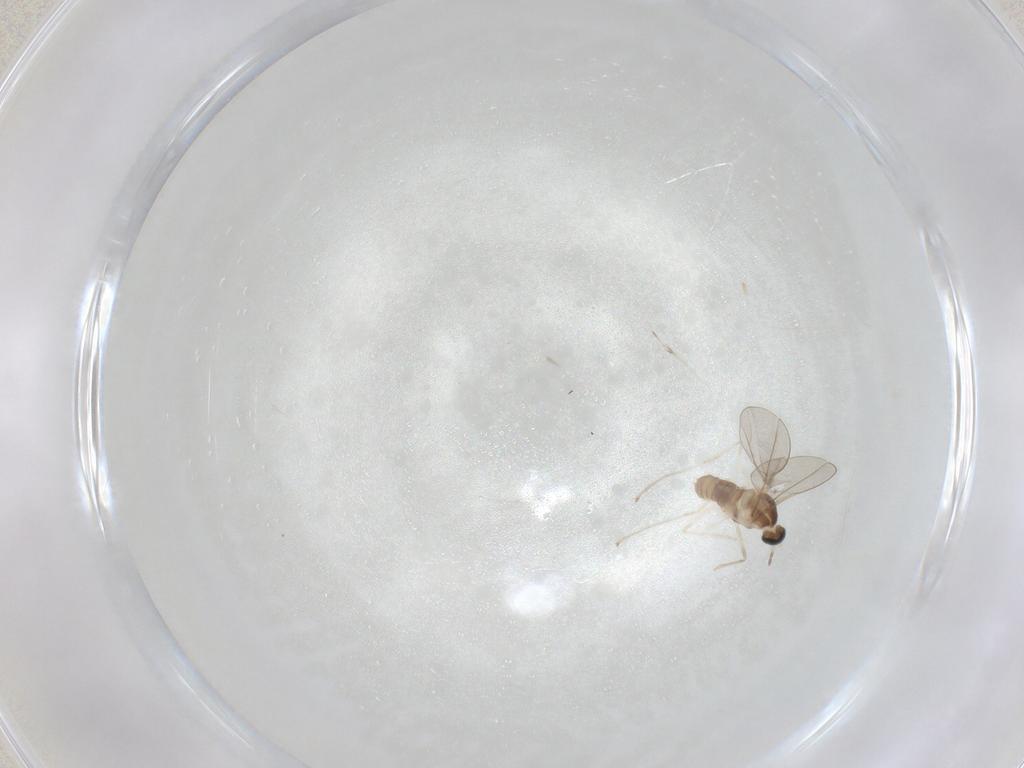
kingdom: Animalia
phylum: Arthropoda
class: Insecta
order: Diptera
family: Cecidomyiidae
